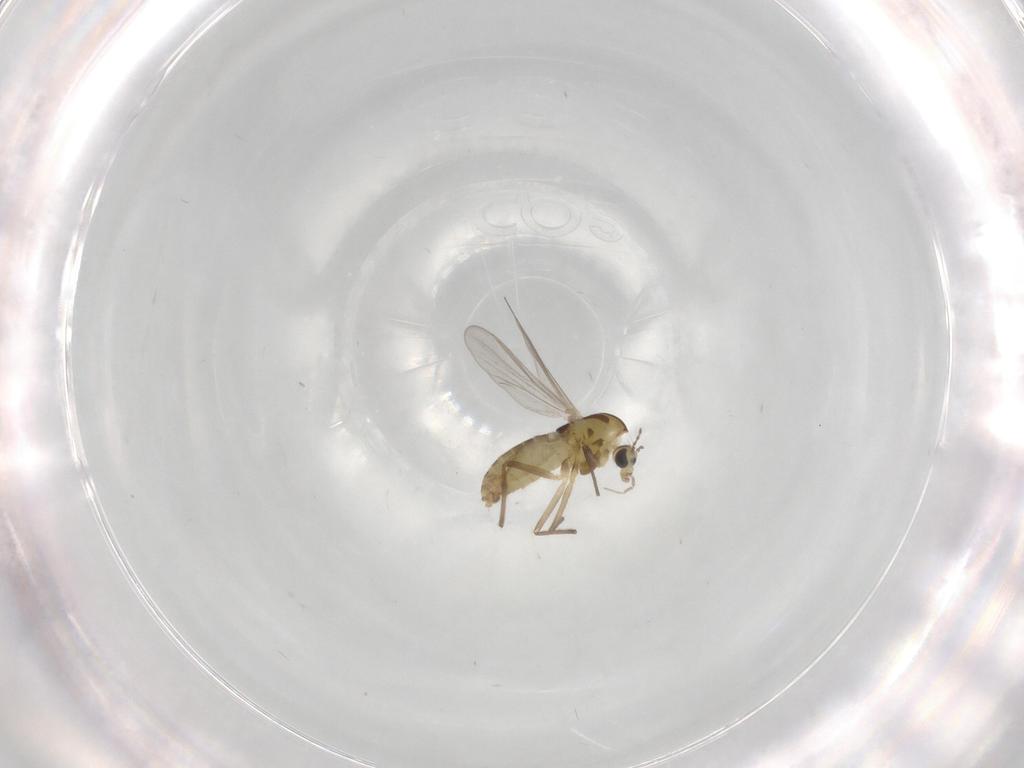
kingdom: Animalia
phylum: Arthropoda
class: Insecta
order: Diptera
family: Chironomidae
